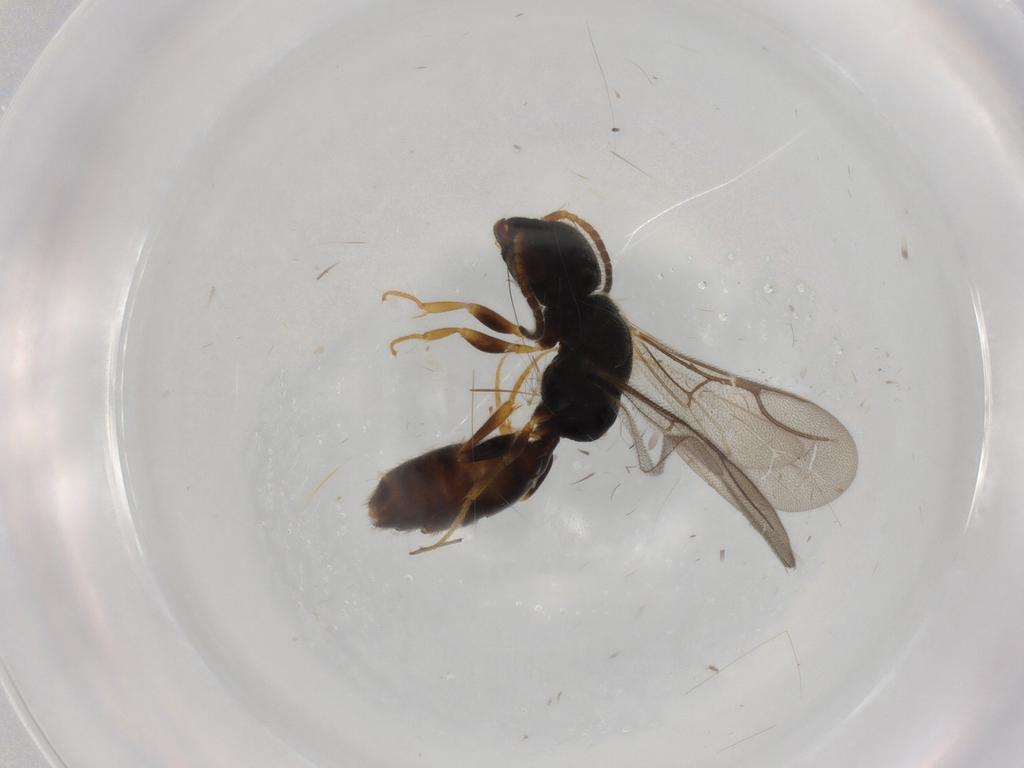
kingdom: Animalia
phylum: Arthropoda
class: Insecta
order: Hymenoptera
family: Bethylidae
